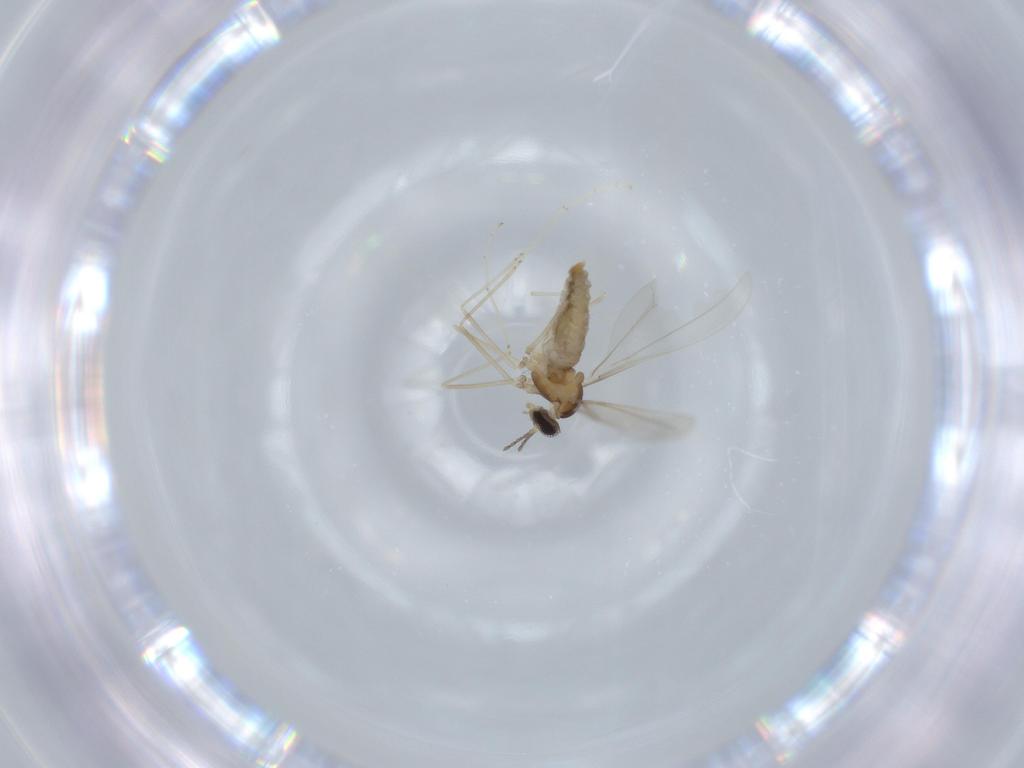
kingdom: Animalia
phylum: Arthropoda
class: Insecta
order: Diptera
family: Cecidomyiidae
